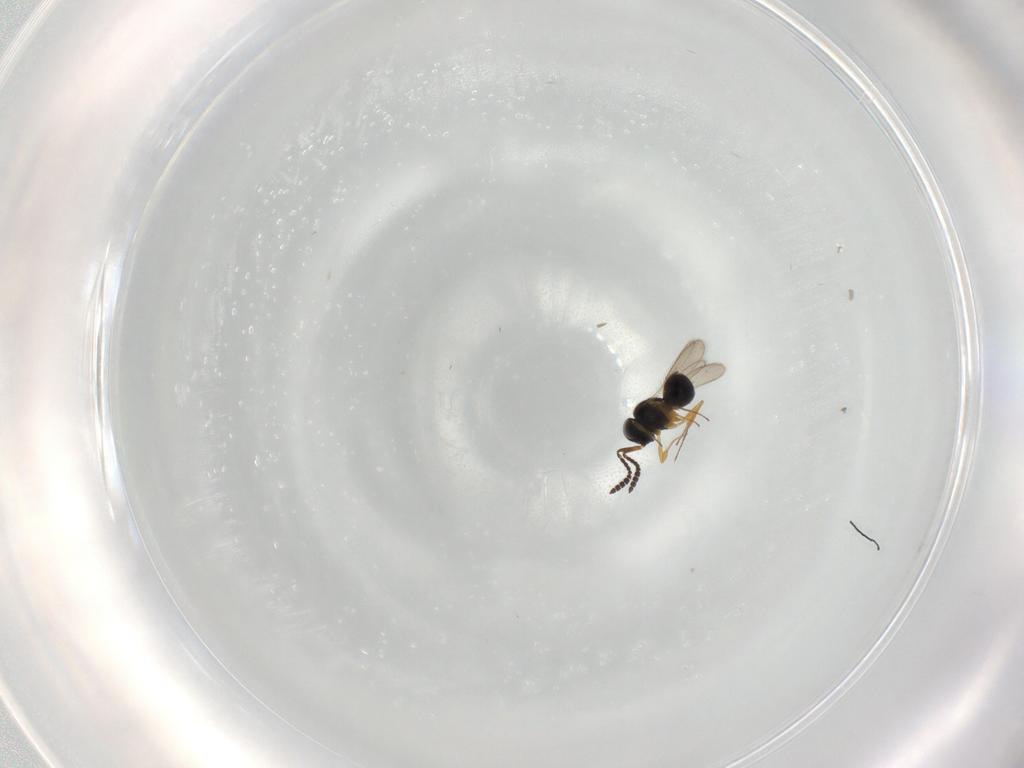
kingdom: Animalia
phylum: Arthropoda
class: Insecta
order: Hymenoptera
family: Scelionidae
